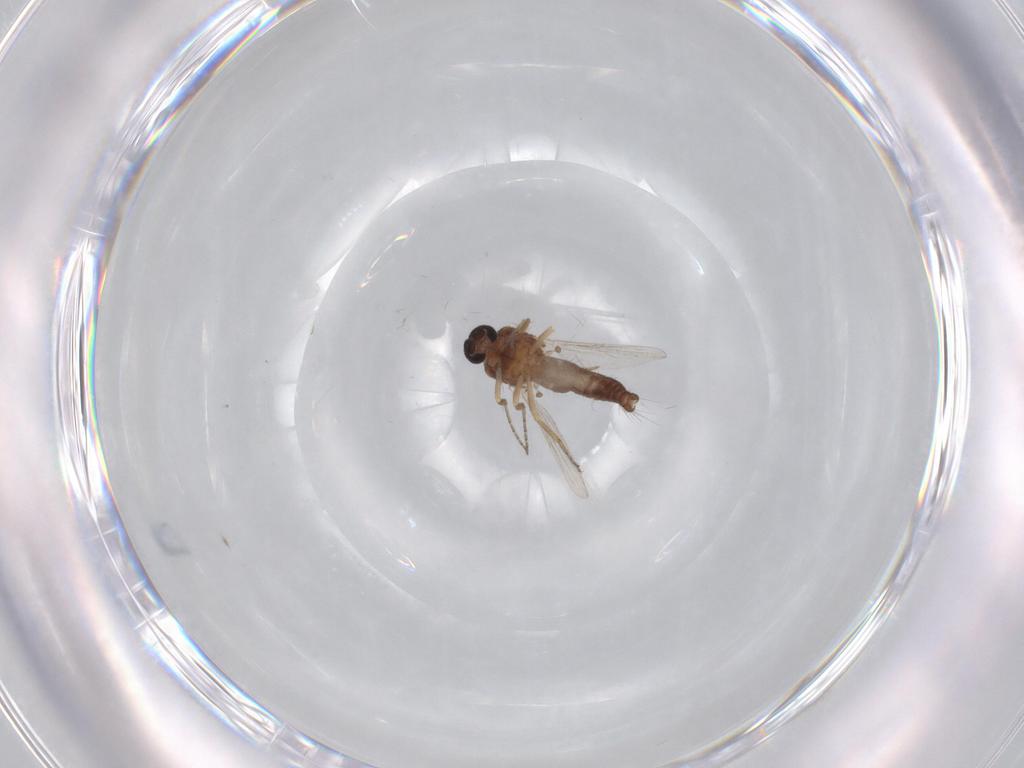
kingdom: Animalia
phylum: Arthropoda
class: Insecta
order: Diptera
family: Ceratopogonidae
